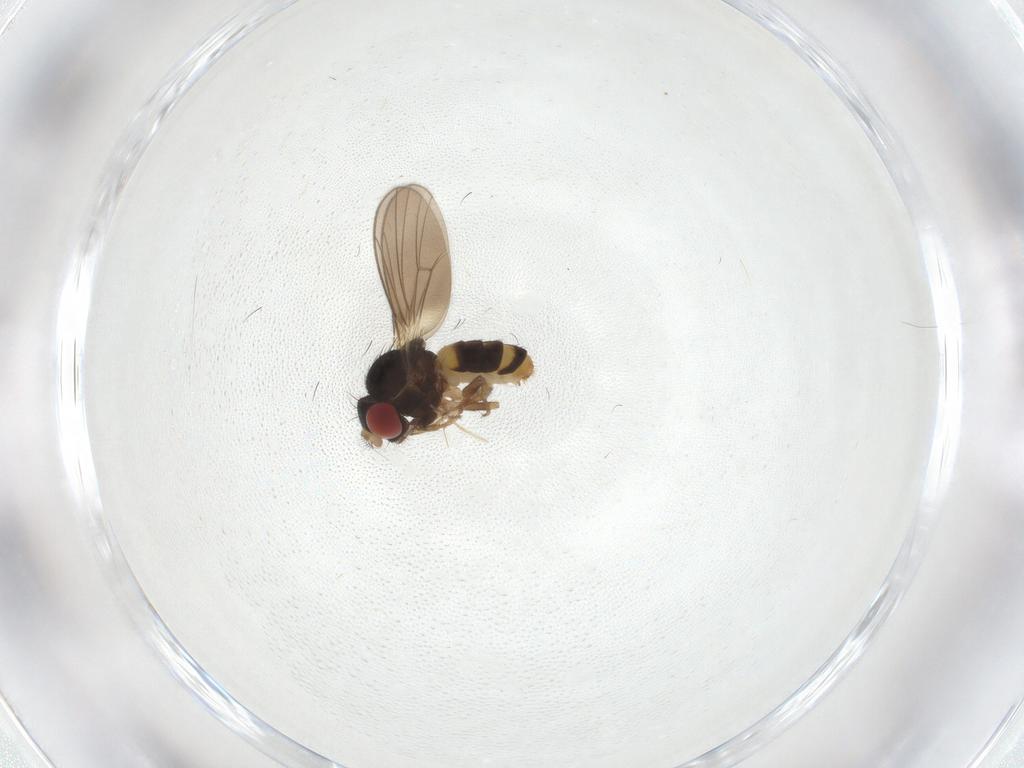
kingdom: Animalia
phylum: Arthropoda
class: Insecta
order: Diptera
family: Drosophilidae
